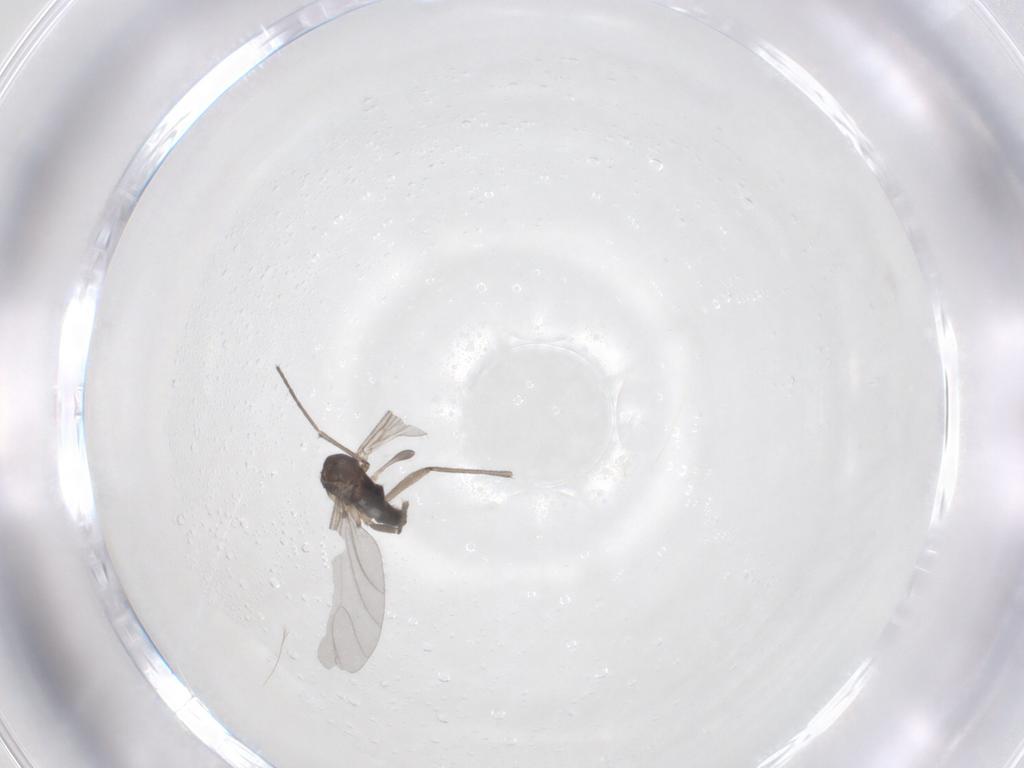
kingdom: Animalia
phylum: Arthropoda
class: Insecta
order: Diptera
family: Sciaridae
